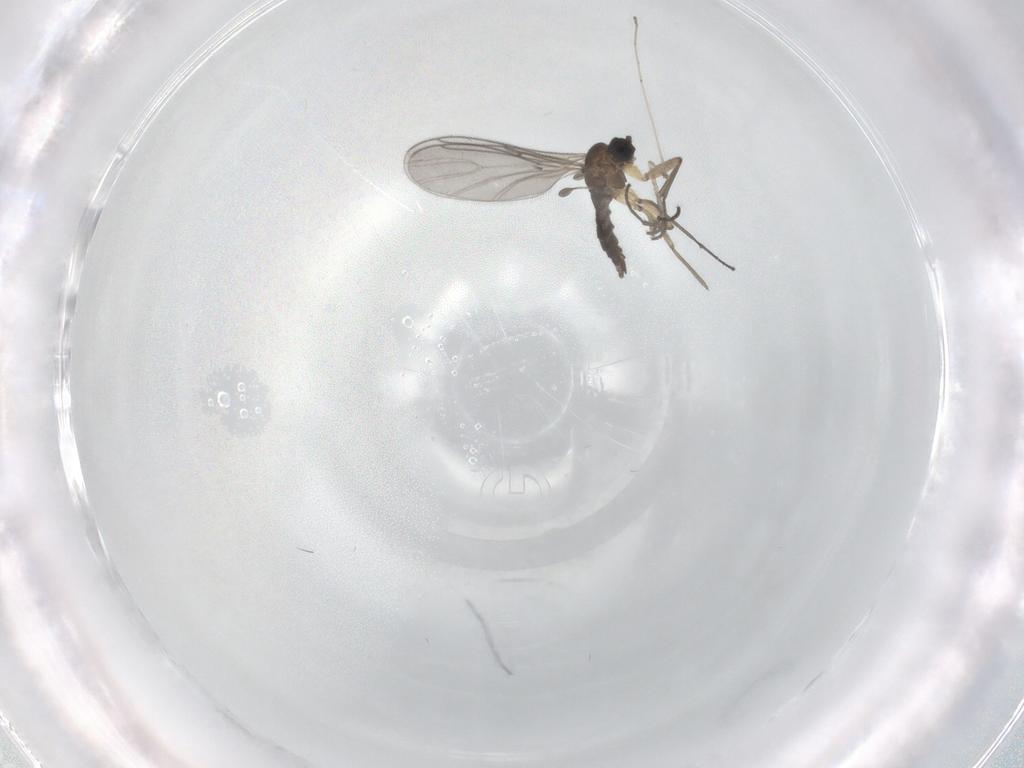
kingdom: Animalia
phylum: Arthropoda
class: Insecta
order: Diptera
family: Sciaridae
